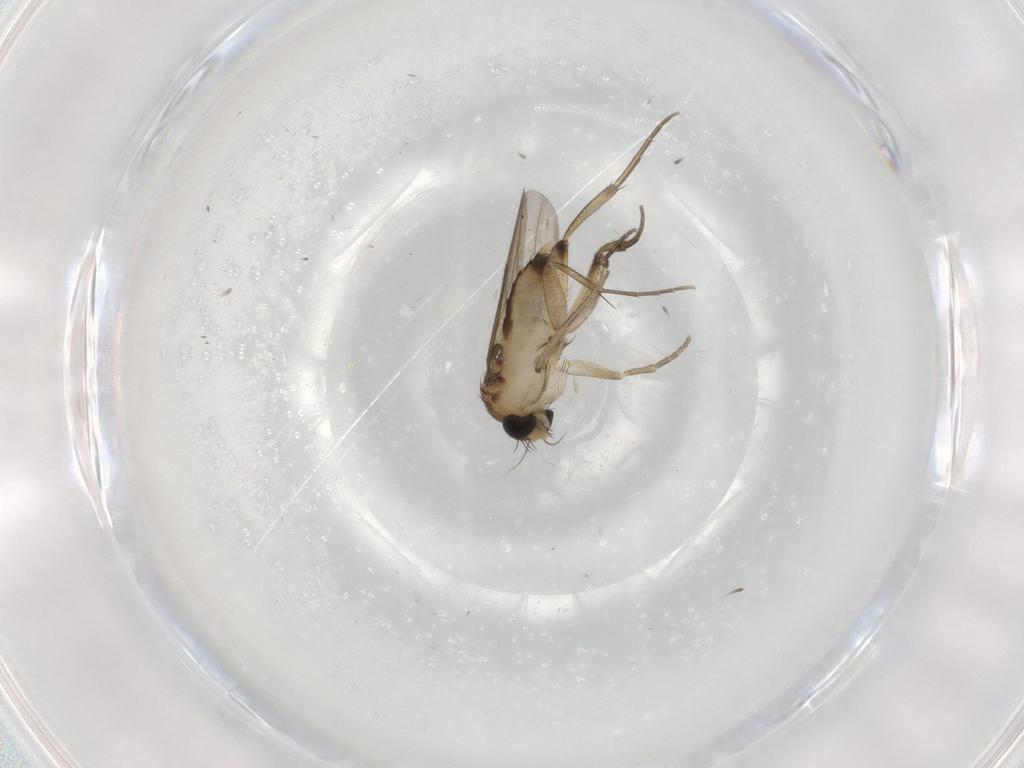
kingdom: Animalia
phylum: Arthropoda
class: Insecta
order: Diptera
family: Phoridae
